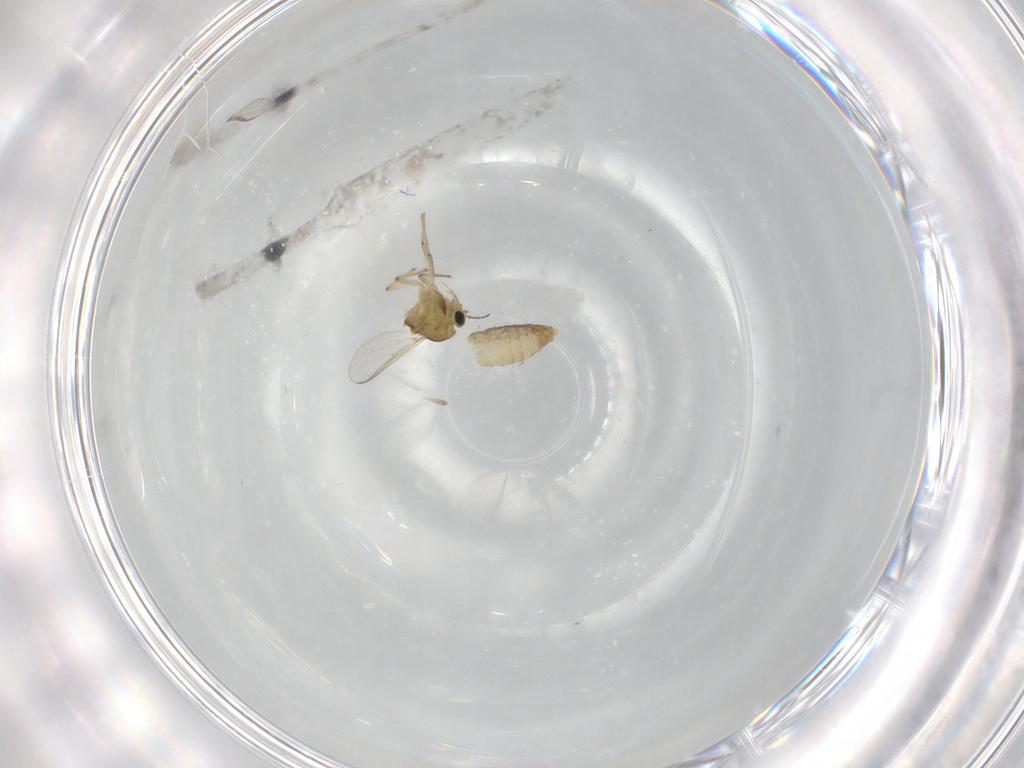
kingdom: Animalia
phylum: Arthropoda
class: Insecta
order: Diptera
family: Chironomidae
